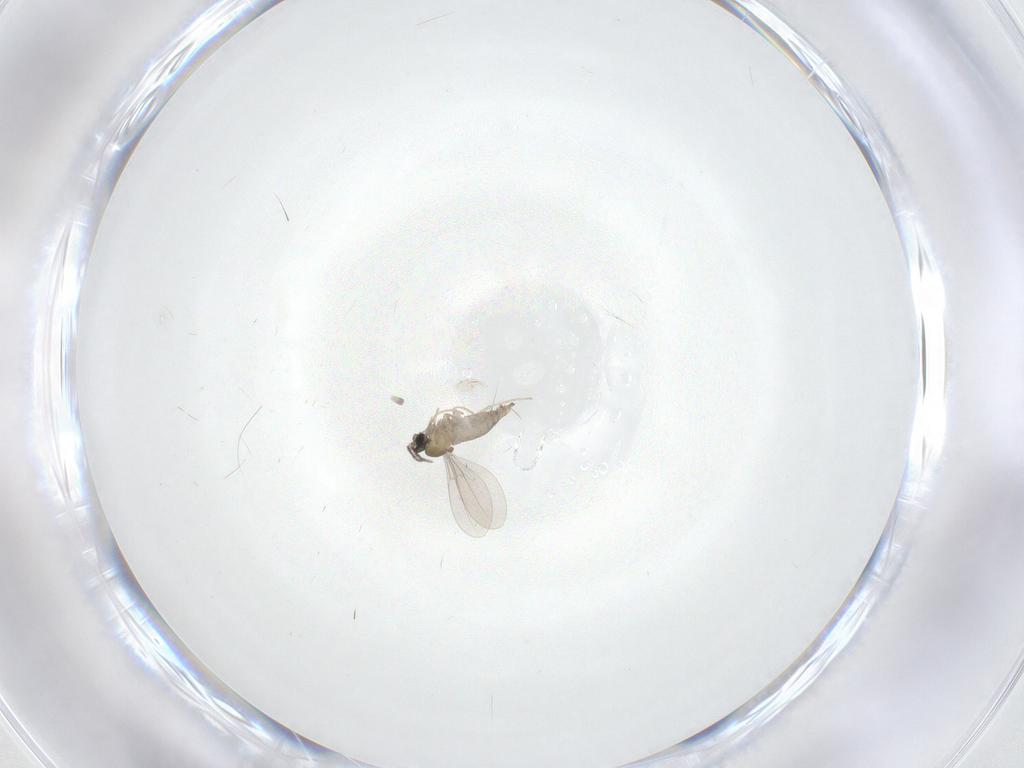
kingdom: Animalia
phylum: Arthropoda
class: Insecta
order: Diptera
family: Cecidomyiidae
